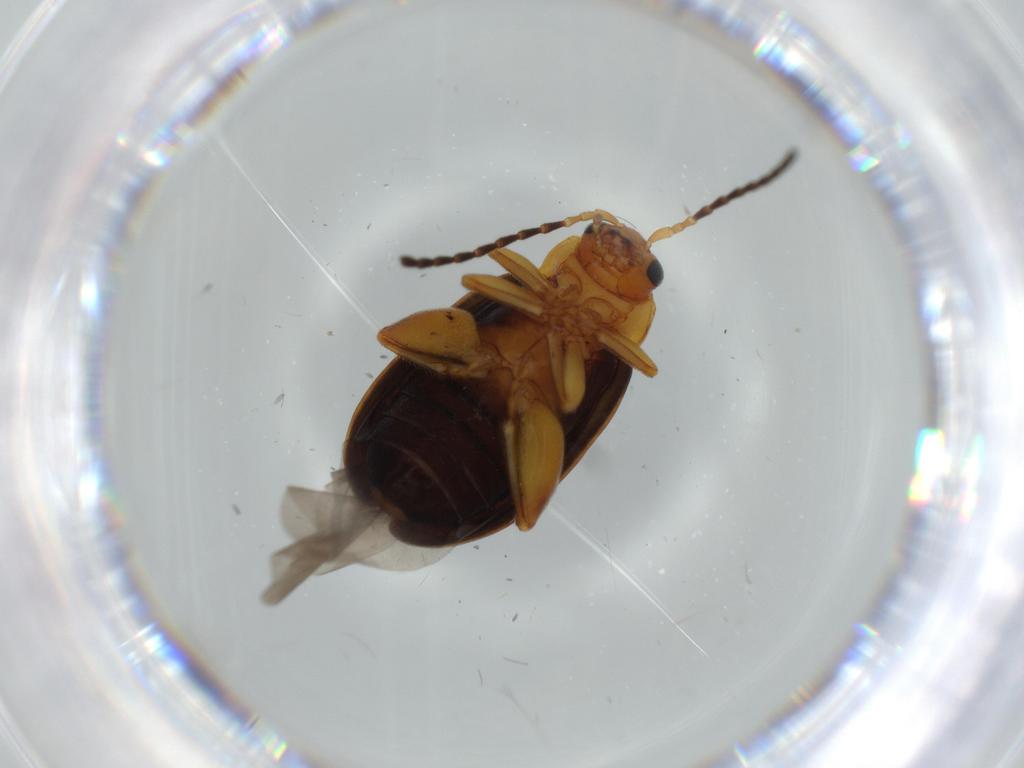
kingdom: Animalia
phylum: Arthropoda
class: Insecta
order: Coleoptera
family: Chrysomelidae
